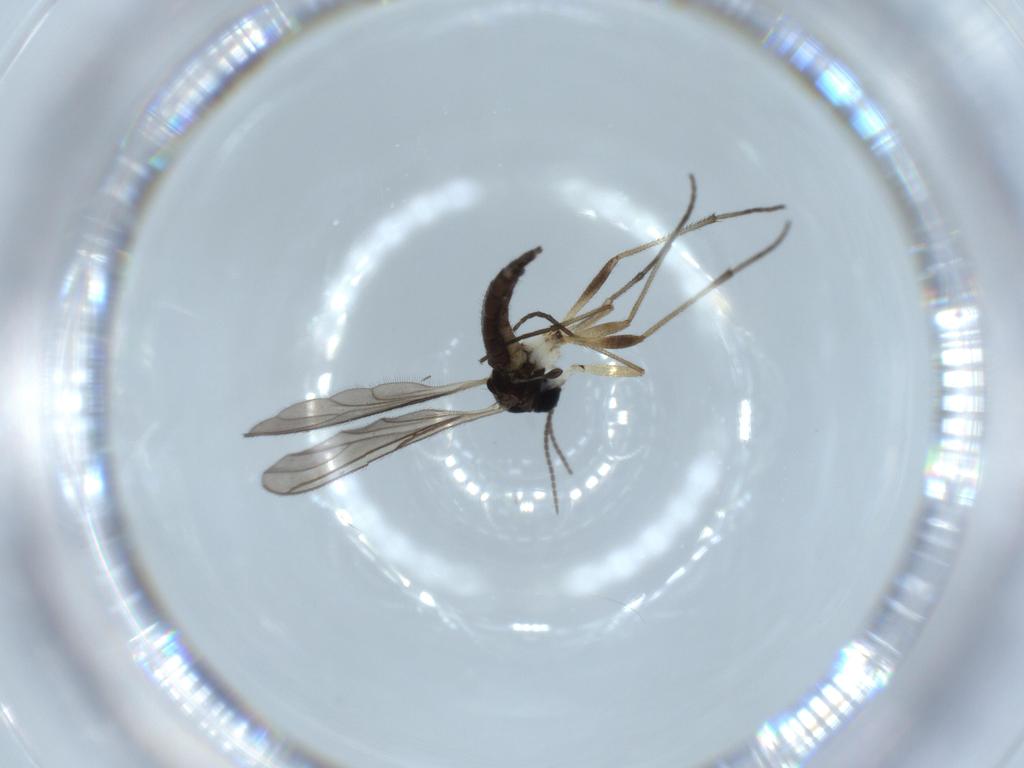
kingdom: Animalia
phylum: Arthropoda
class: Insecta
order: Diptera
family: Sciaridae
